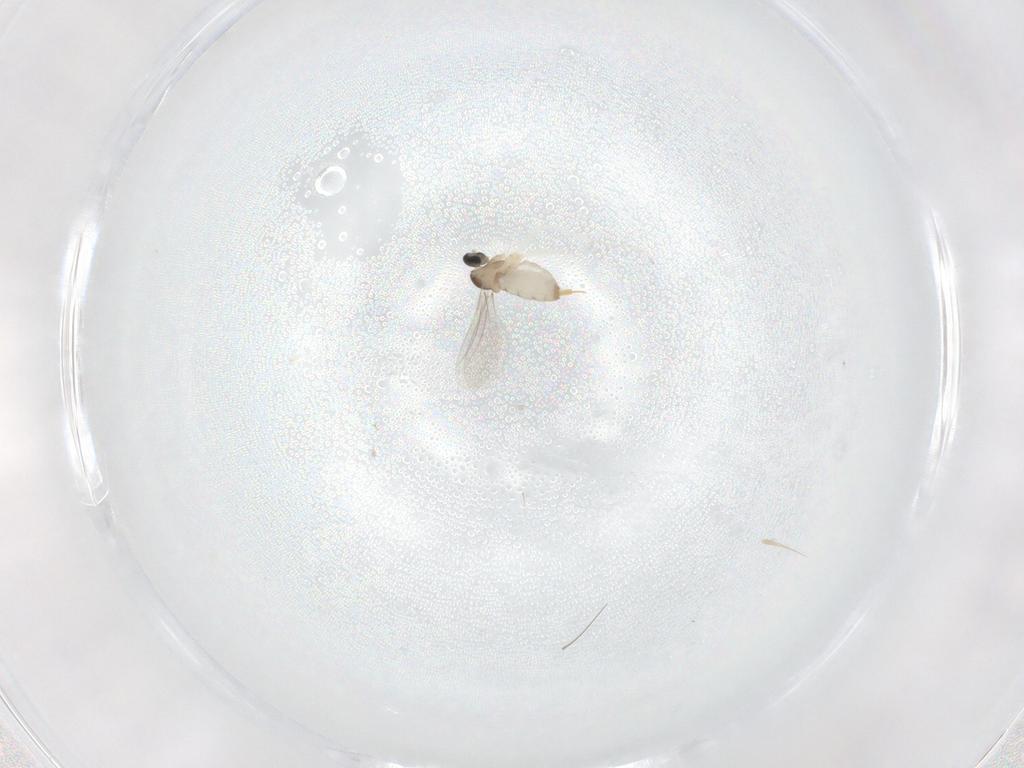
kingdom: Animalia
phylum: Arthropoda
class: Insecta
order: Diptera
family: Cecidomyiidae
